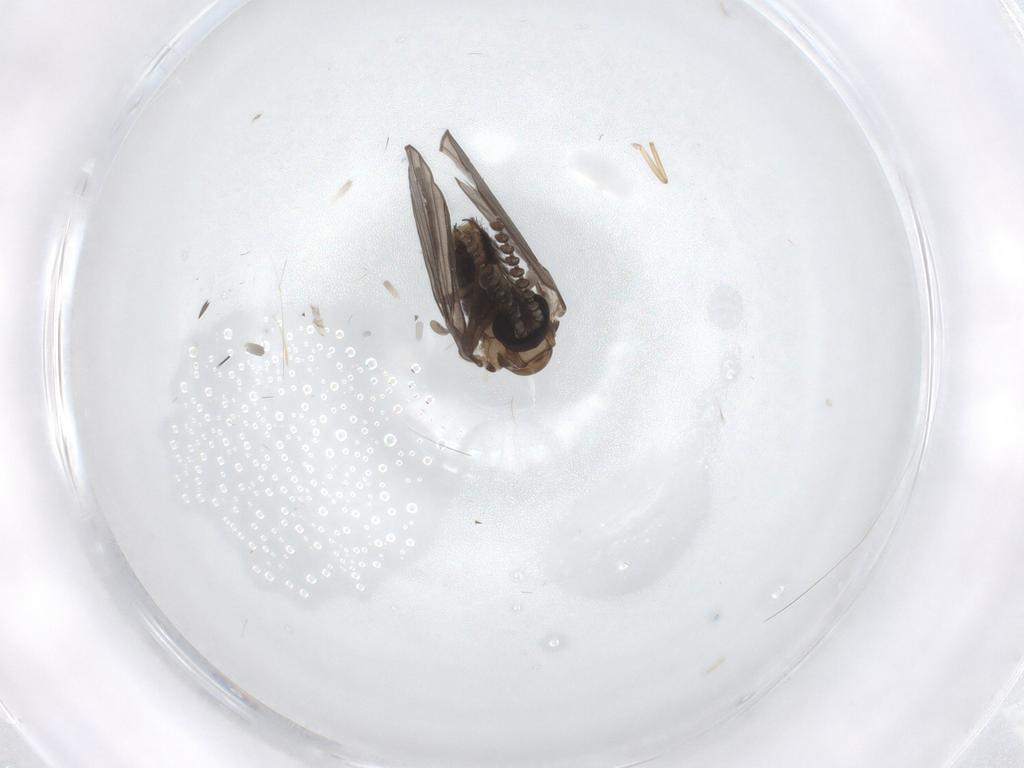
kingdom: Animalia
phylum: Arthropoda
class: Insecta
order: Diptera
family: Psychodidae
